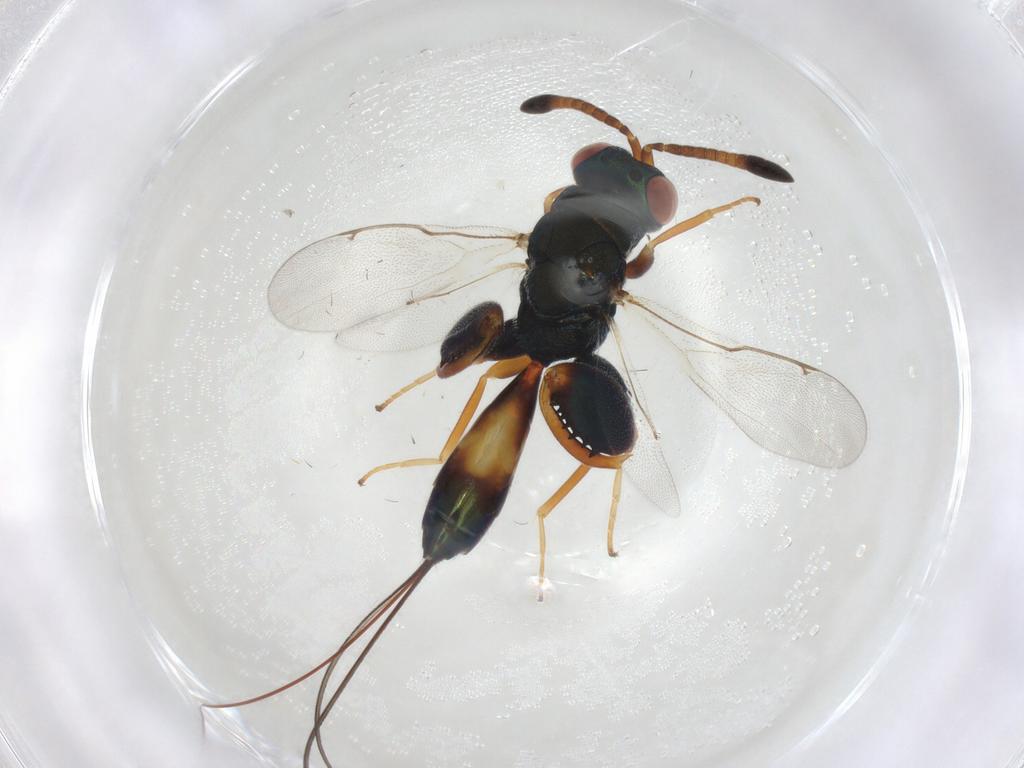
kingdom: Animalia
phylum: Arthropoda
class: Insecta
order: Hymenoptera
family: Torymidae
